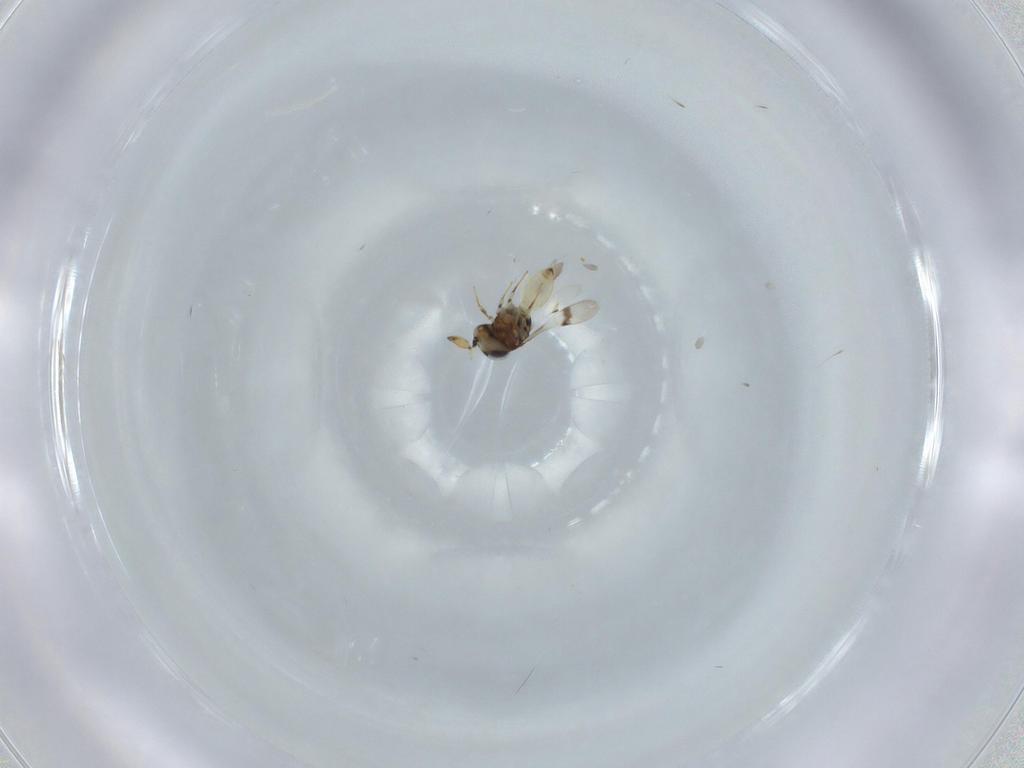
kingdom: Animalia
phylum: Arthropoda
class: Insecta
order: Hymenoptera
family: Scelionidae
